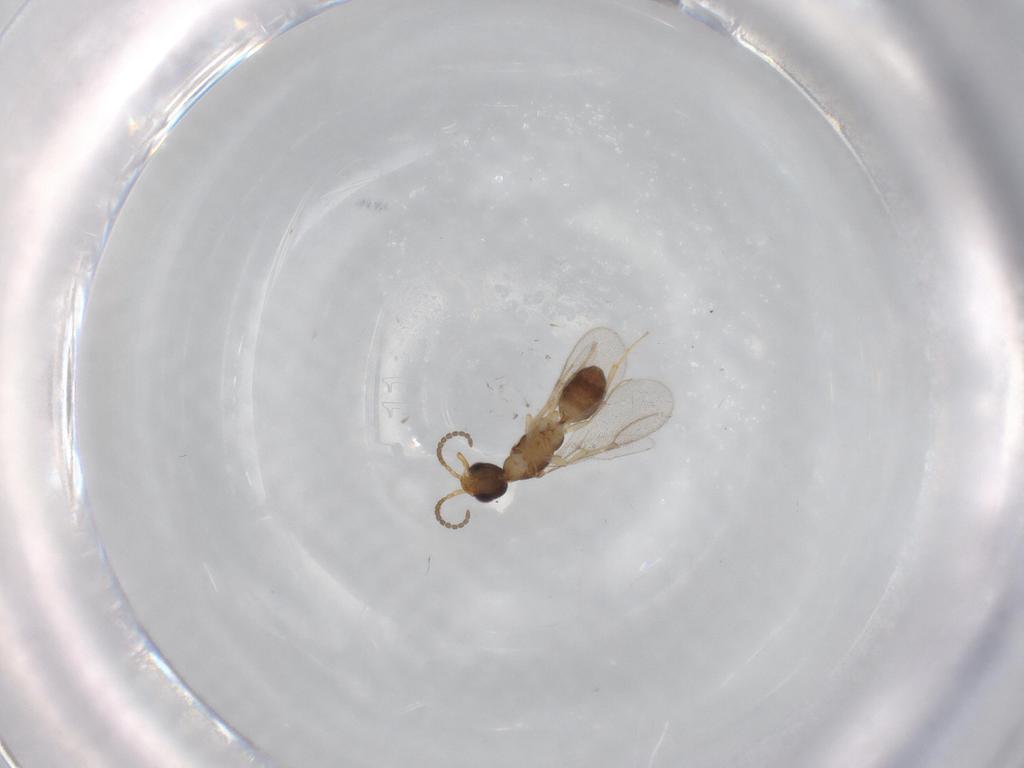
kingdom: Animalia
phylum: Arthropoda
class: Insecta
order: Hymenoptera
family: Bethylidae
